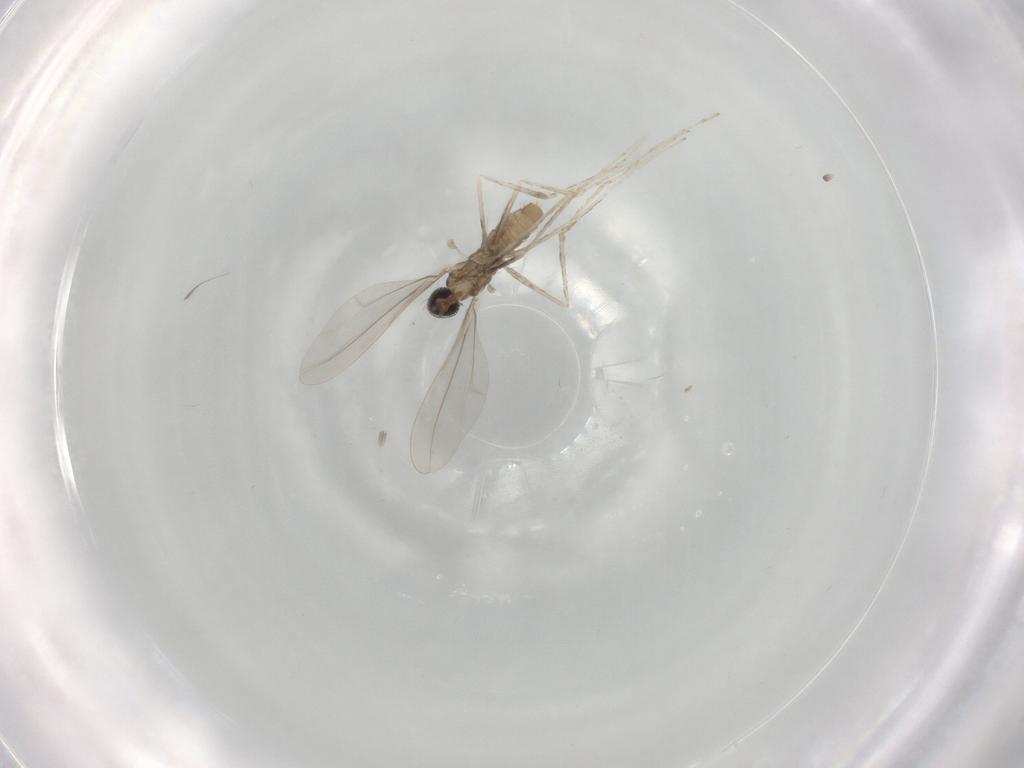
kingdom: Animalia
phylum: Arthropoda
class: Insecta
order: Diptera
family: Cecidomyiidae
